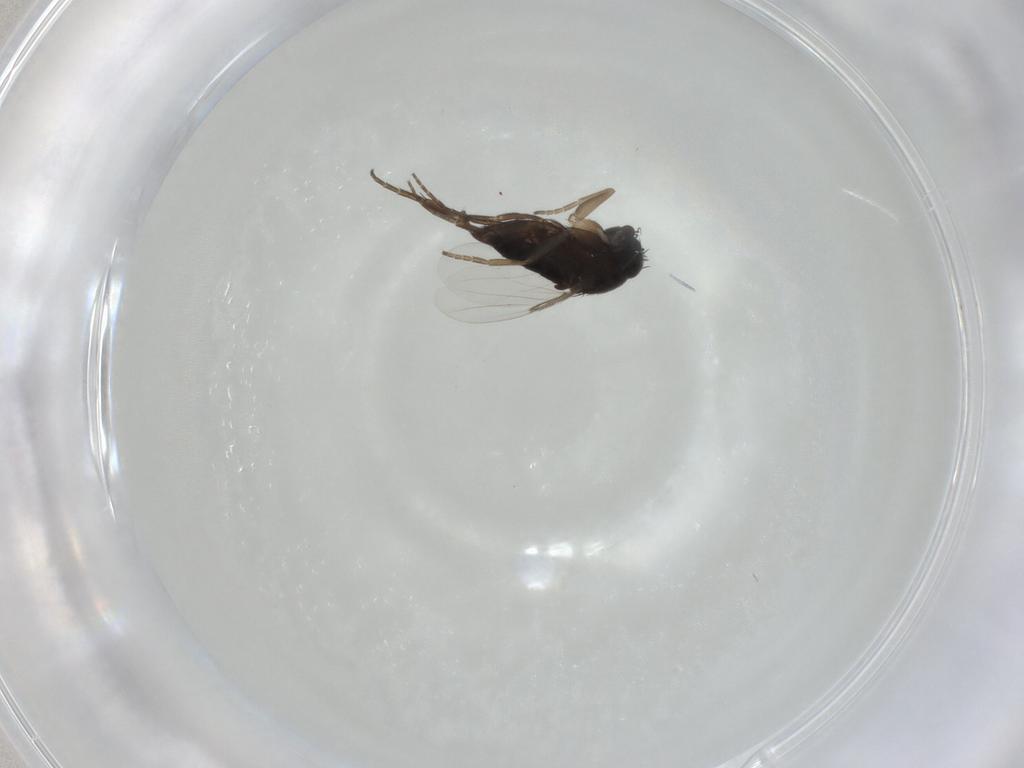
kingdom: Animalia
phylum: Arthropoda
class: Insecta
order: Diptera
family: Phoridae
